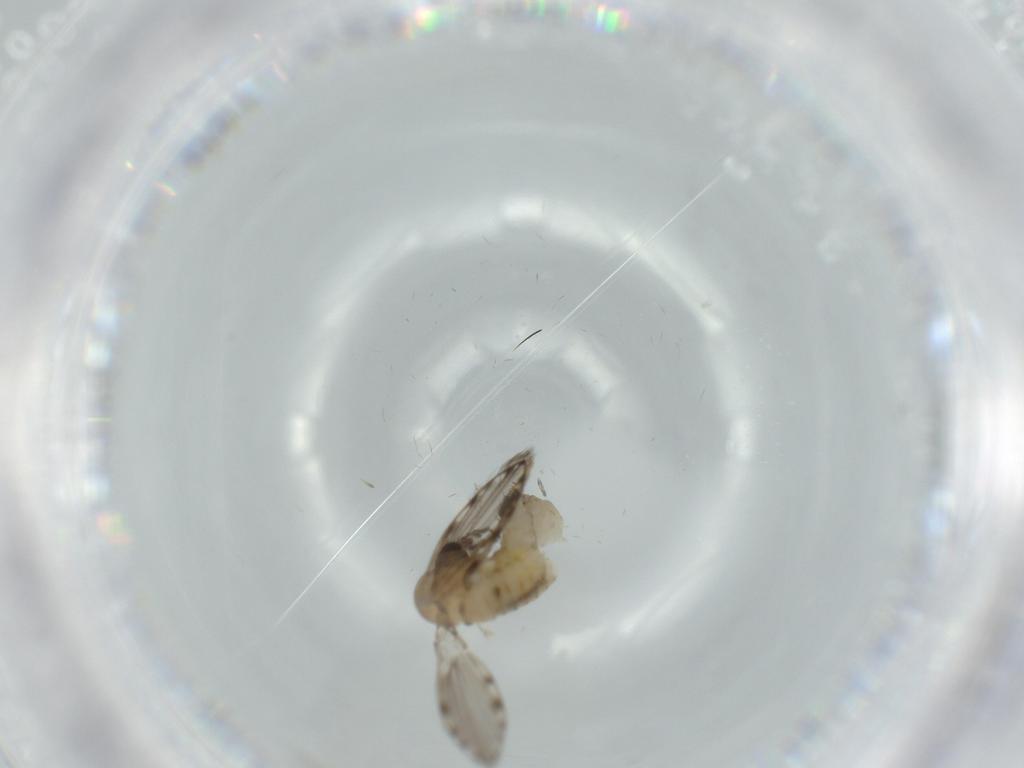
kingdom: Animalia
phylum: Arthropoda
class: Insecta
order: Diptera
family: Psychodidae
